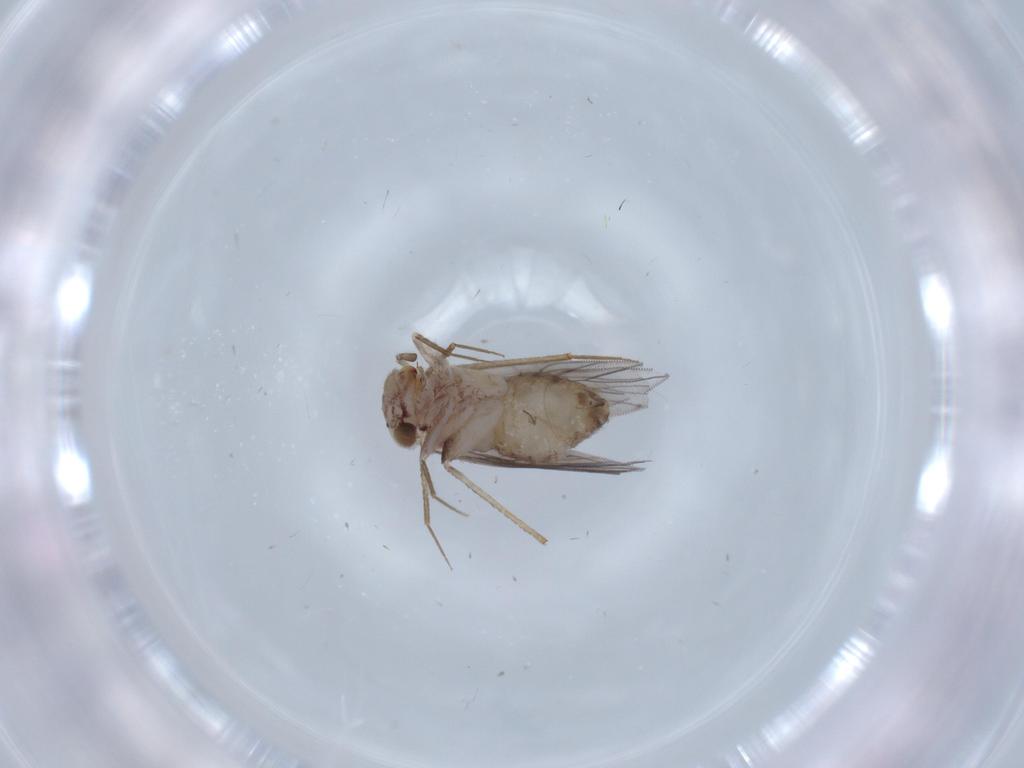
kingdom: Animalia
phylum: Arthropoda
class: Insecta
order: Psocodea
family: Lepidopsocidae
